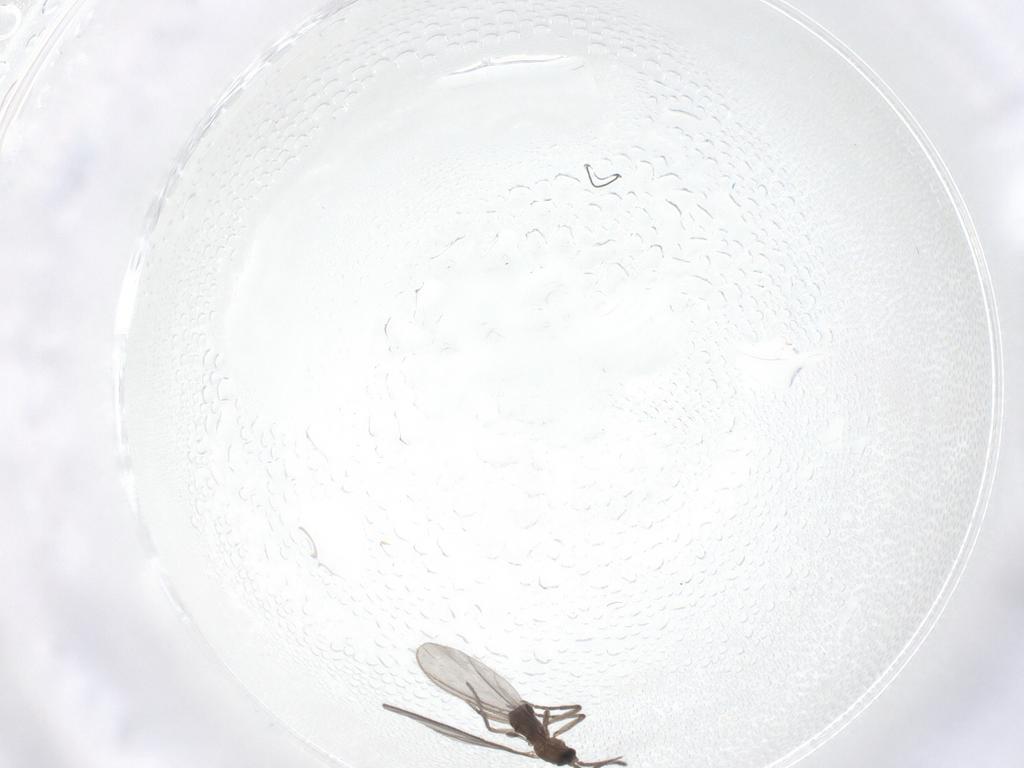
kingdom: Animalia
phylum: Arthropoda
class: Insecta
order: Diptera
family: Sciaridae
